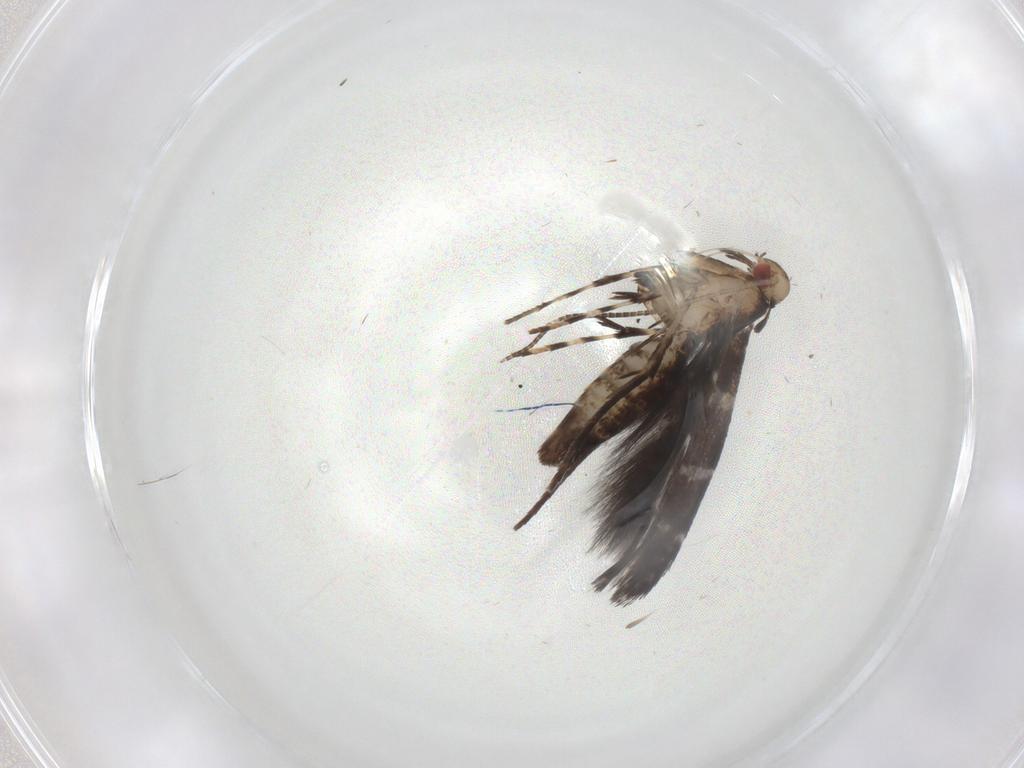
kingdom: Animalia
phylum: Arthropoda
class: Insecta
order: Lepidoptera
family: Gracillariidae
